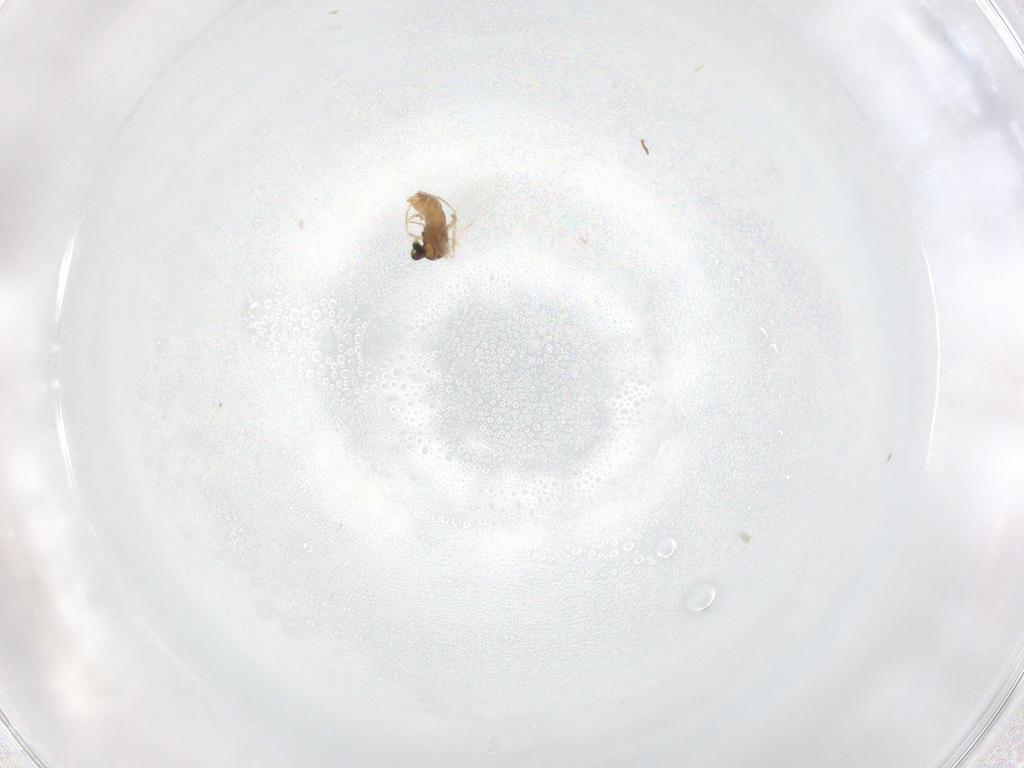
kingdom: Animalia
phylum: Arthropoda
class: Insecta
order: Diptera
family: Cecidomyiidae
